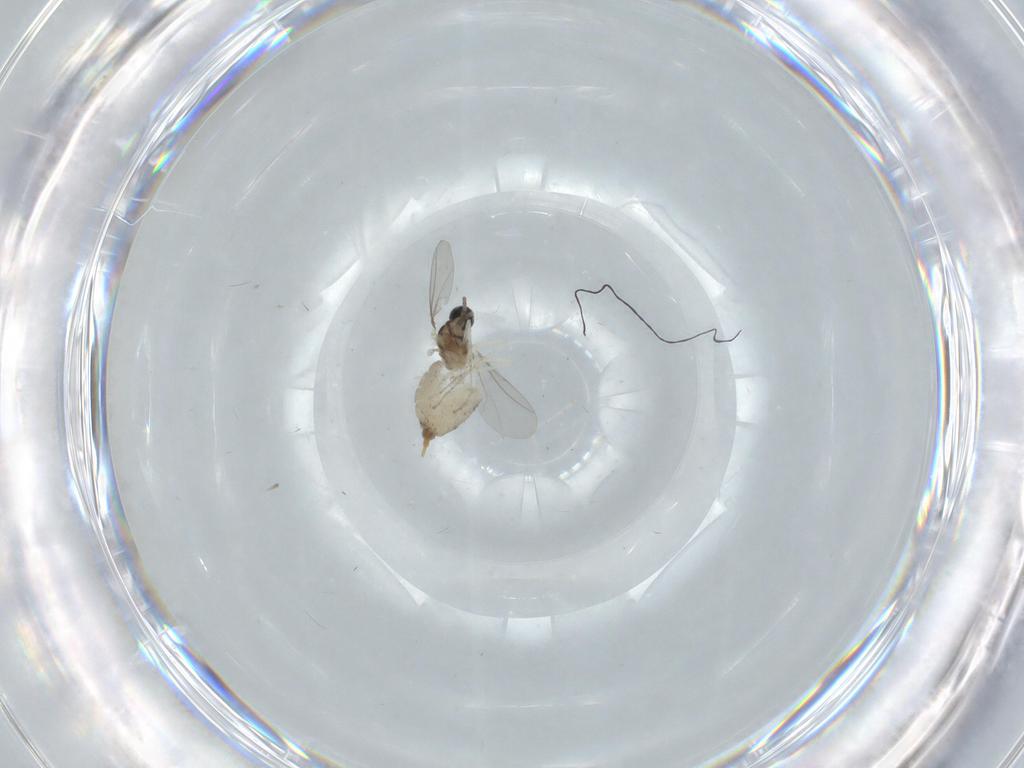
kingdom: Animalia
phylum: Arthropoda
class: Insecta
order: Diptera
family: Cecidomyiidae
